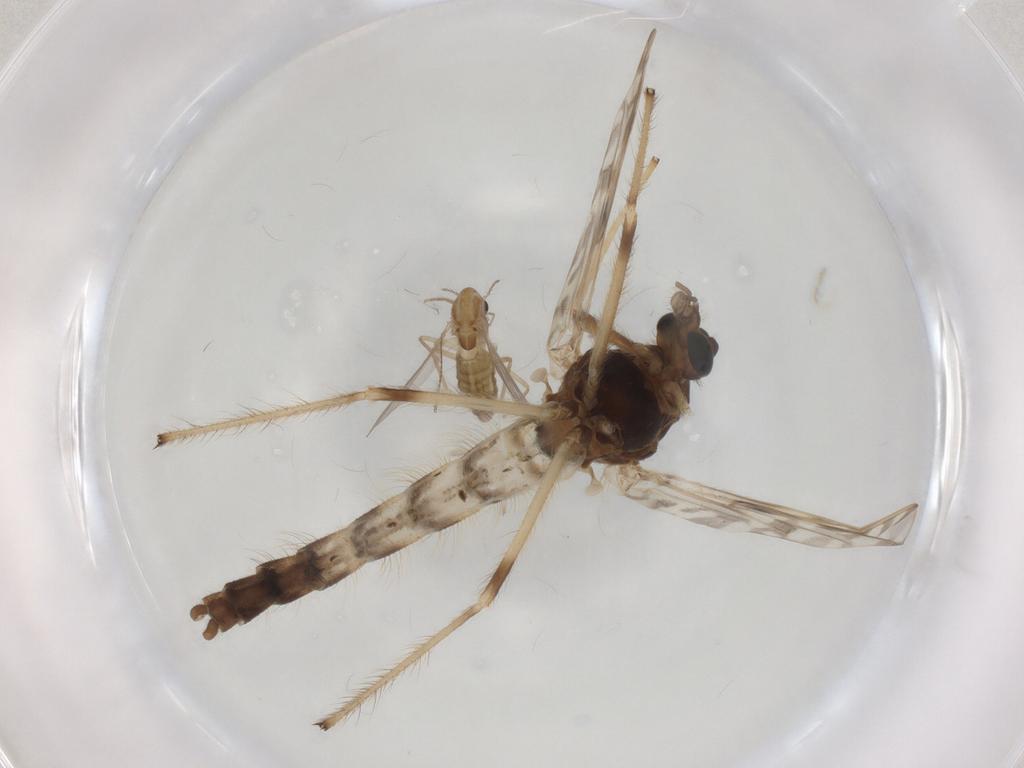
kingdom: Animalia
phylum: Arthropoda
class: Insecta
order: Diptera
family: Chironomidae
